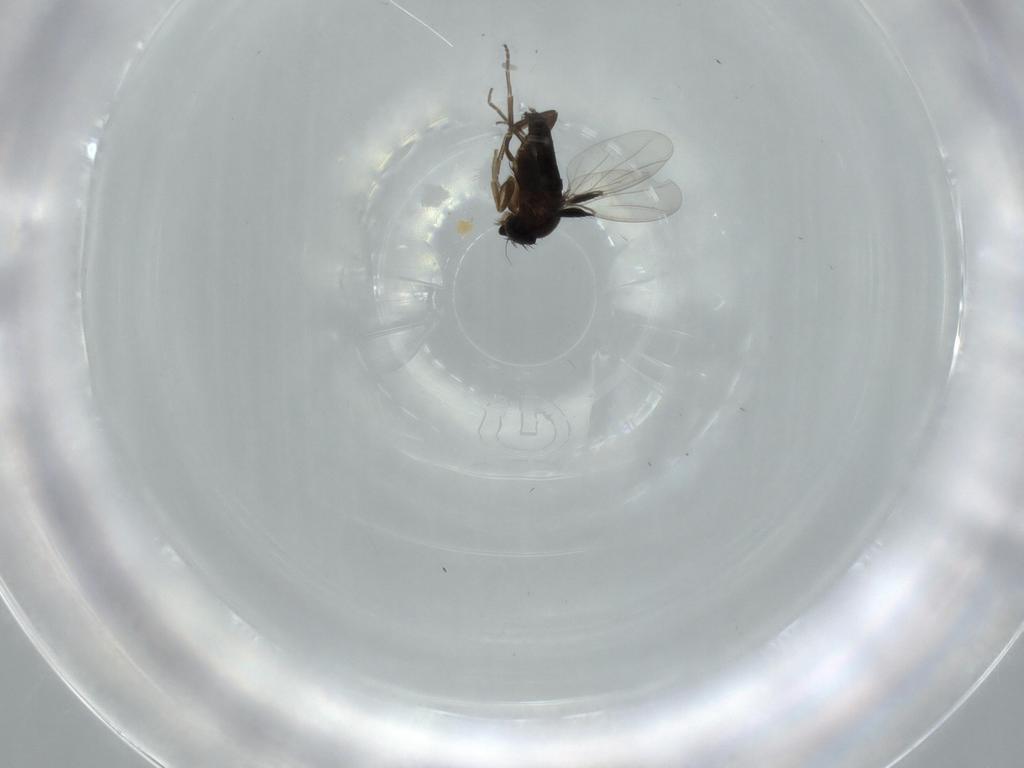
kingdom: Animalia
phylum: Arthropoda
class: Insecta
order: Diptera
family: Phoridae
